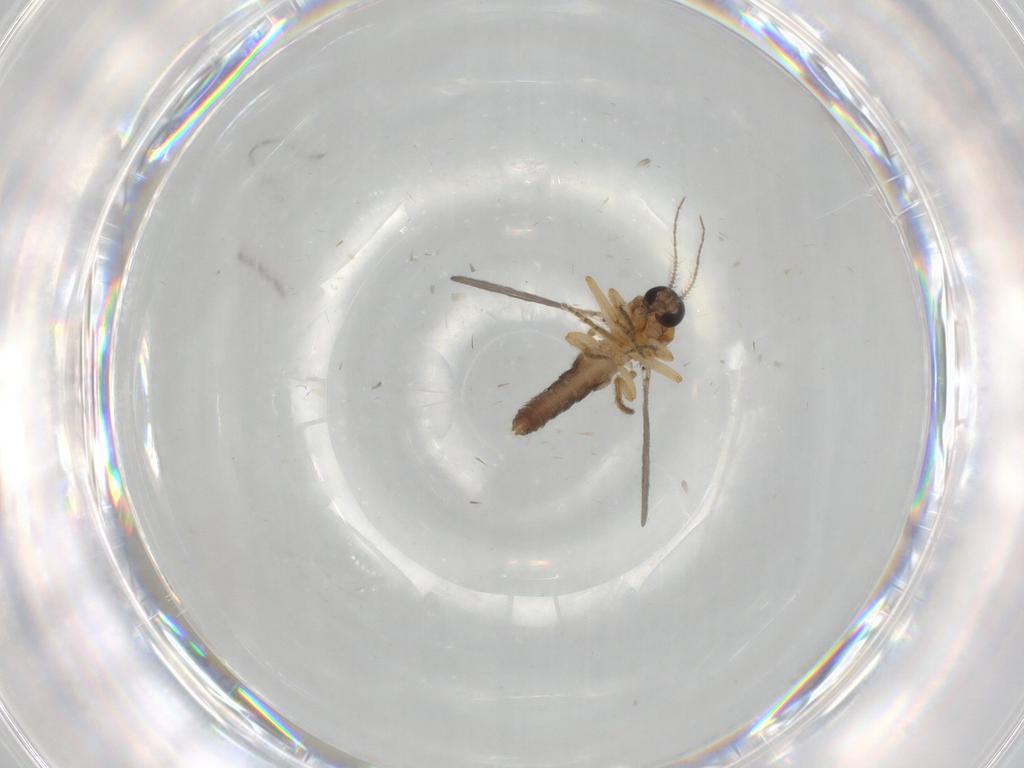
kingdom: Animalia
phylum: Arthropoda
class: Insecta
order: Diptera
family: Ceratopogonidae
